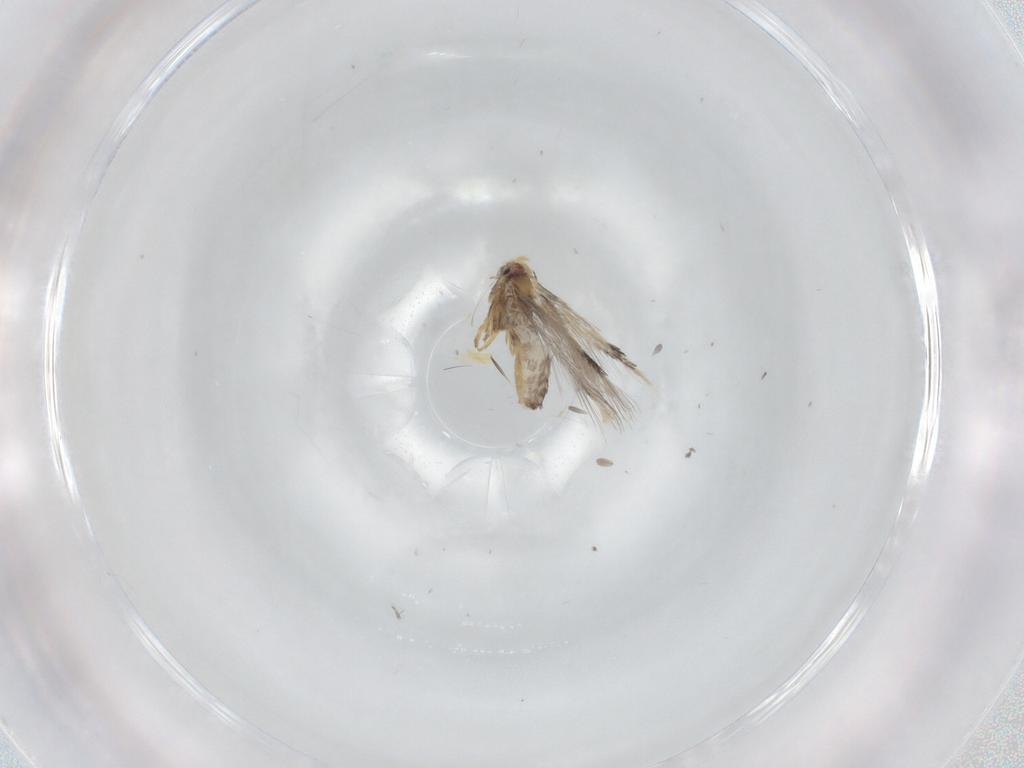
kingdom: Animalia
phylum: Arthropoda
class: Insecta
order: Lepidoptera
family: Nepticulidae
